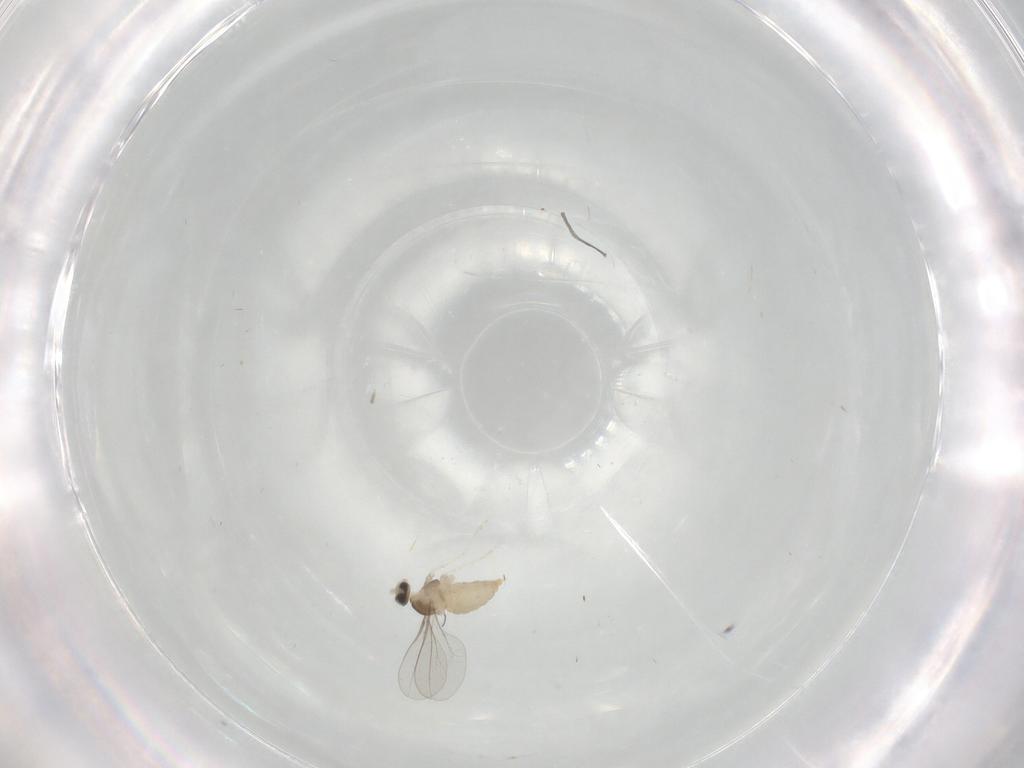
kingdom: Animalia
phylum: Arthropoda
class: Insecta
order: Diptera
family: Cecidomyiidae
